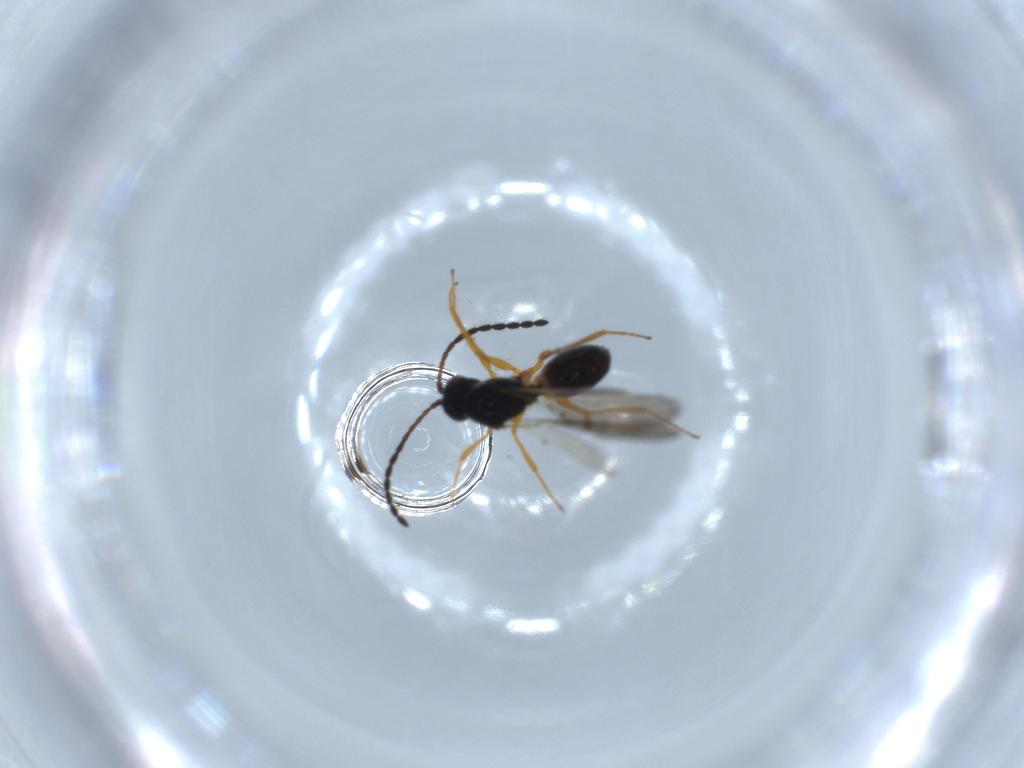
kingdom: Animalia
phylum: Arthropoda
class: Insecta
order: Hymenoptera
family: Figitidae
